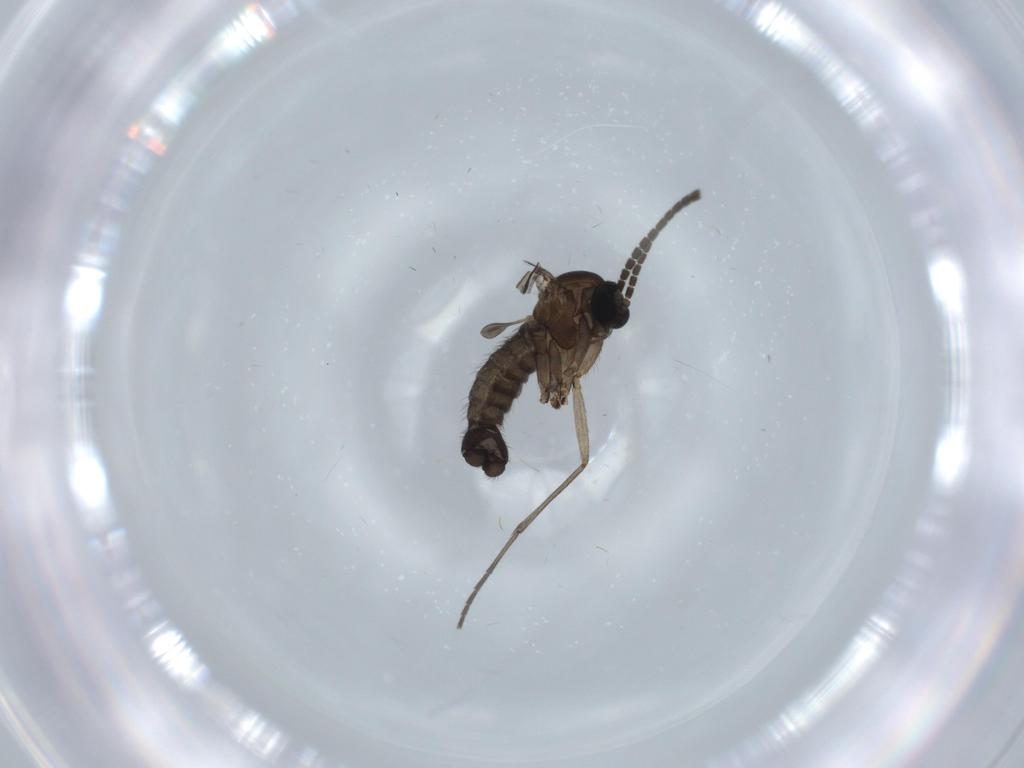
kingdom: Animalia
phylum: Arthropoda
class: Insecta
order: Diptera
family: Sciaridae
